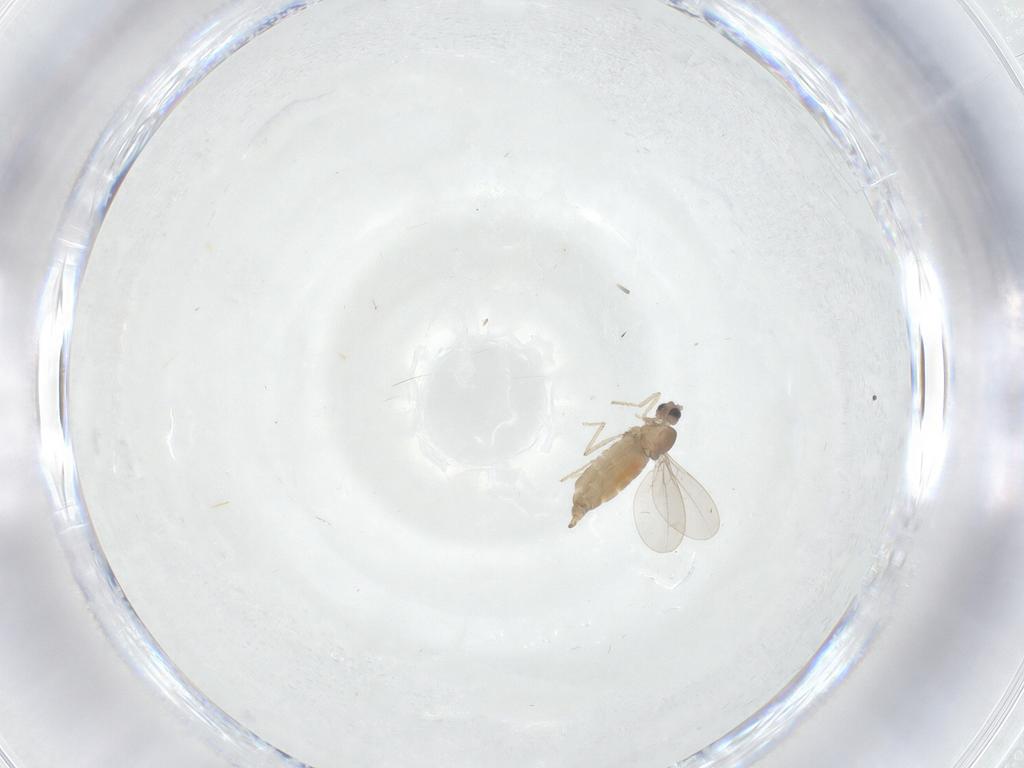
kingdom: Animalia
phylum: Arthropoda
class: Insecta
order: Diptera
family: Cecidomyiidae
